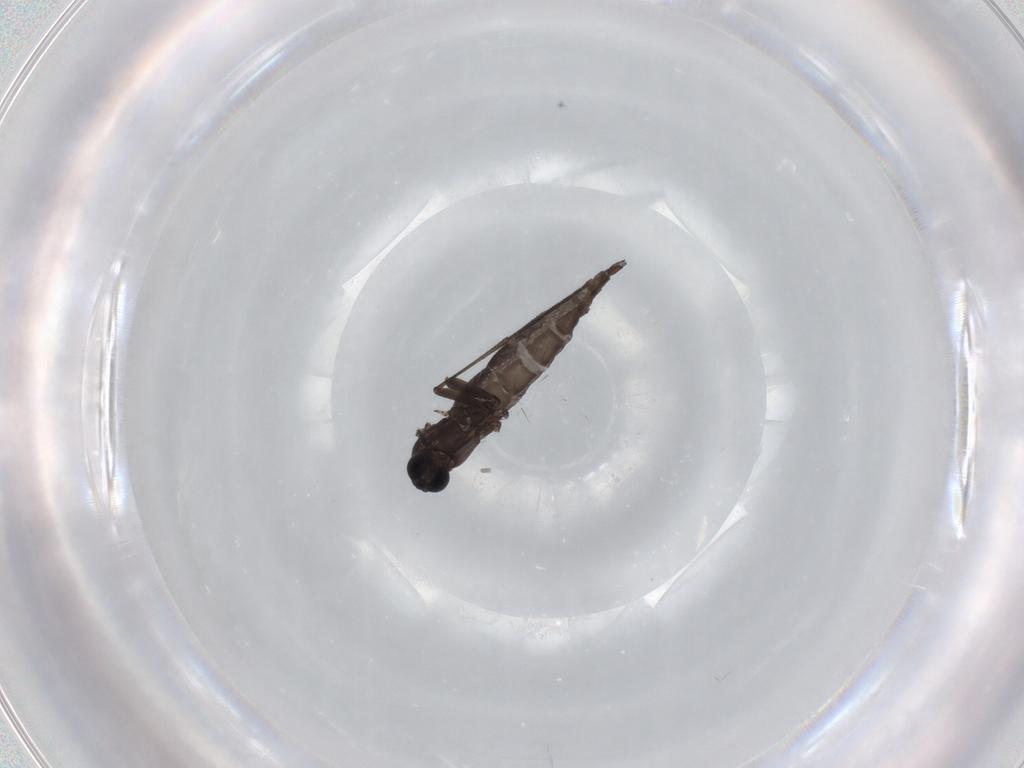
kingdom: Animalia
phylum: Arthropoda
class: Insecta
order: Diptera
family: Sciaridae
